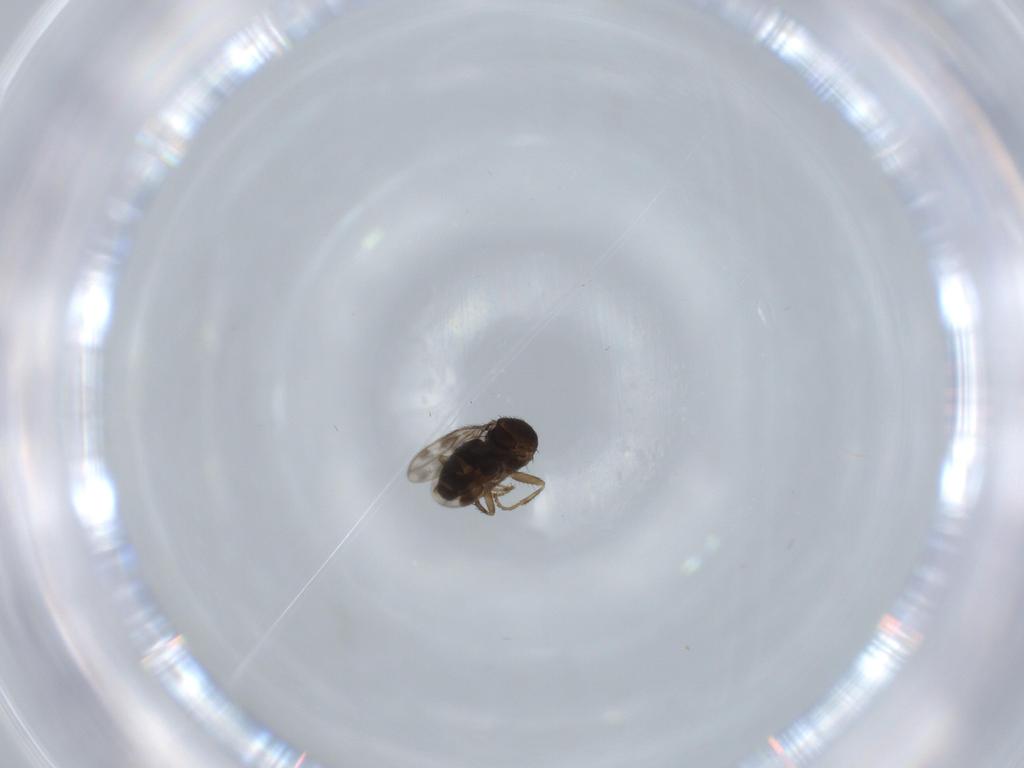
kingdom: Animalia
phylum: Arthropoda
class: Insecta
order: Diptera
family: Sphaeroceridae
